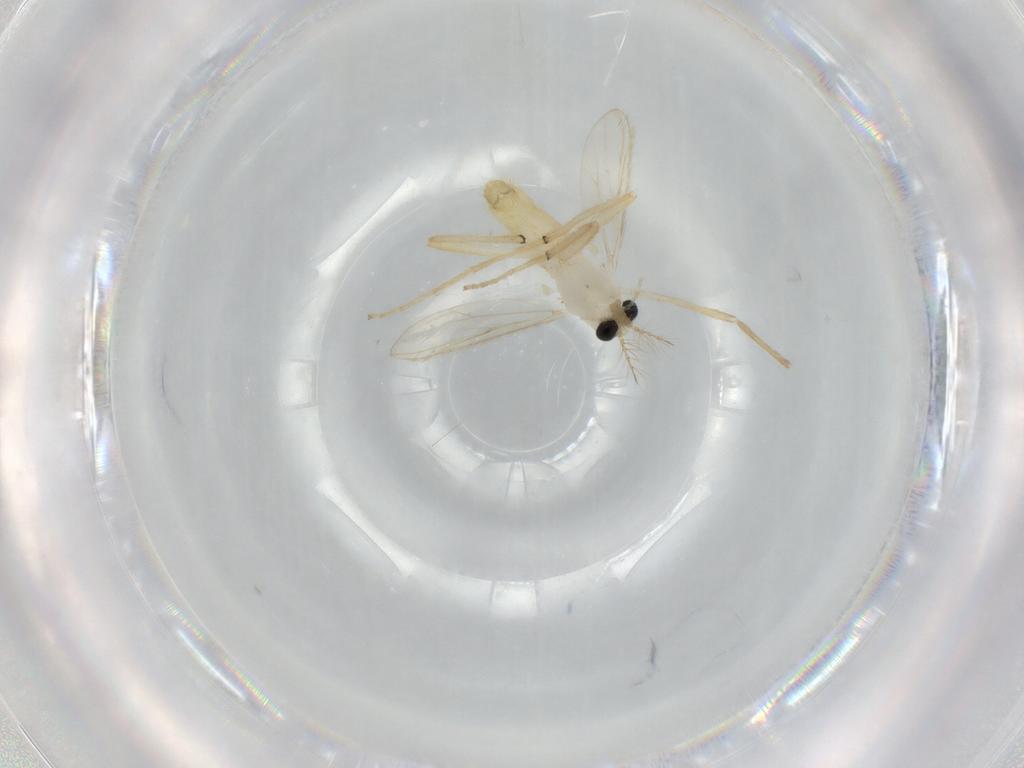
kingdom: Animalia
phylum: Arthropoda
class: Insecta
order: Diptera
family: Chironomidae
